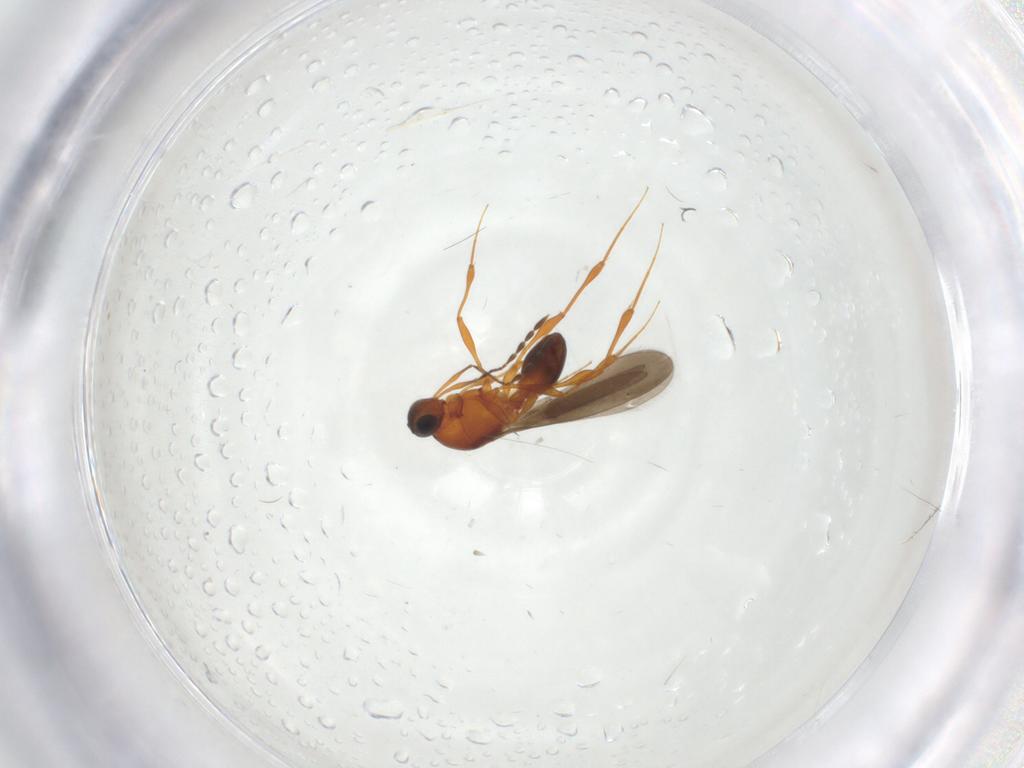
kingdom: Animalia
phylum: Arthropoda
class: Insecta
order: Hymenoptera
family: Platygastridae
